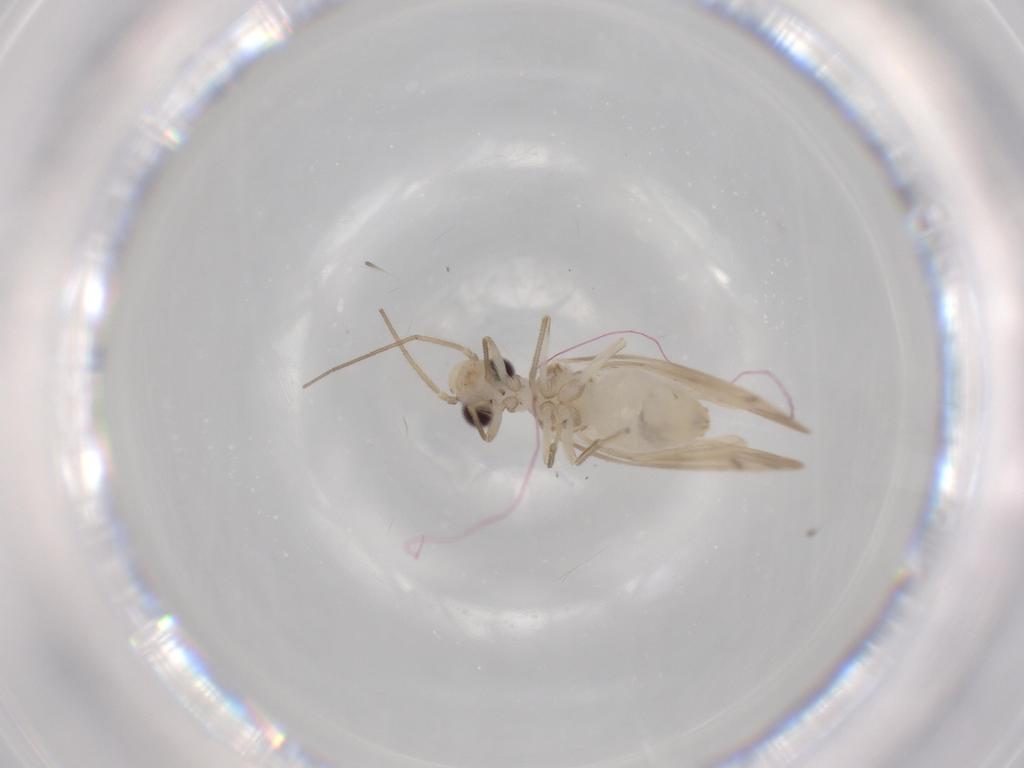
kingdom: Animalia
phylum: Arthropoda
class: Insecta
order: Psocodea
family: Caeciliusidae
